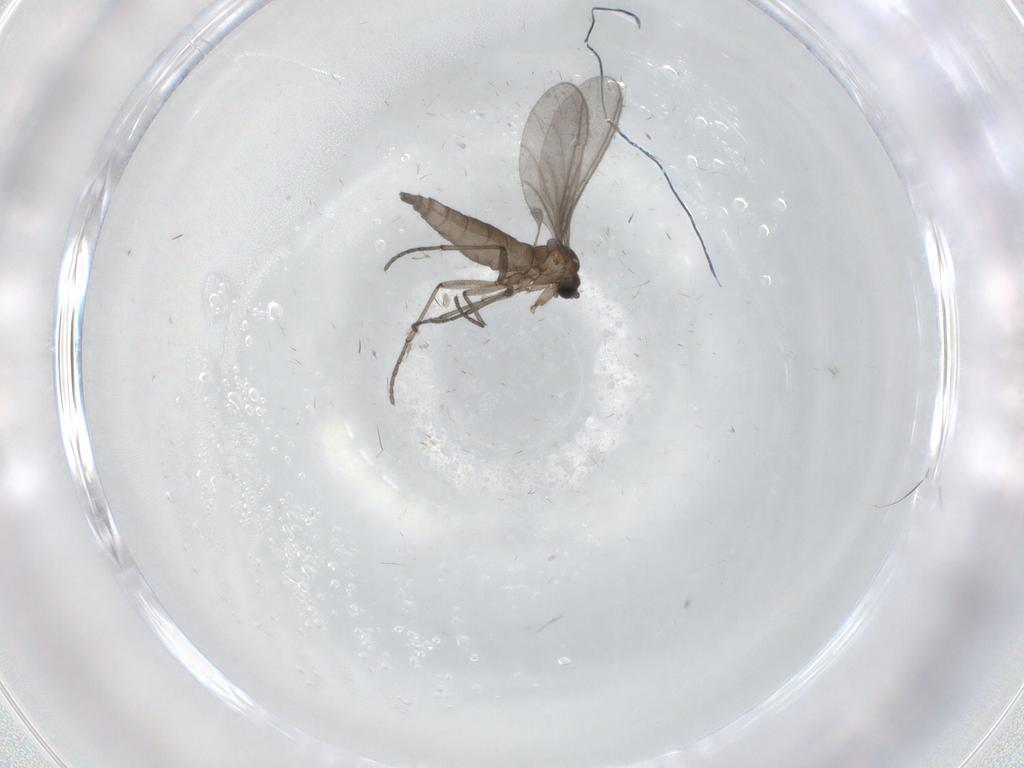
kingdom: Animalia
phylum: Arthropoda
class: Insecta
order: Diptera
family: Sciaridae
